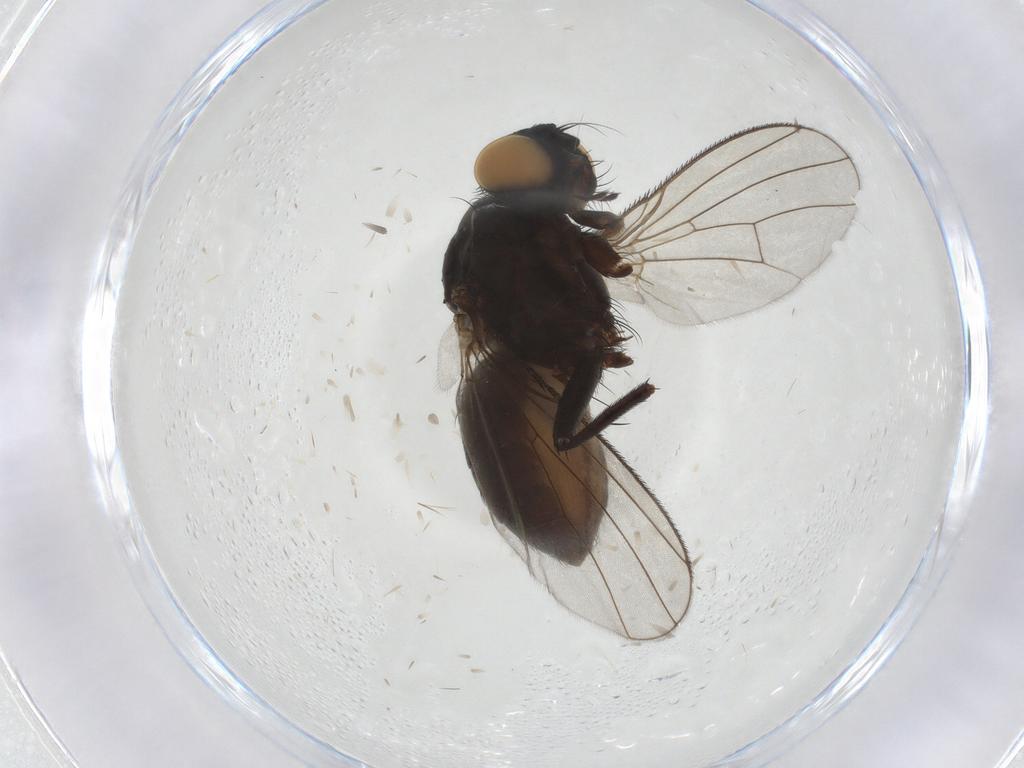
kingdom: Animalia
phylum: Arthropoda
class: Insecta
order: Diptera
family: Muscidae
